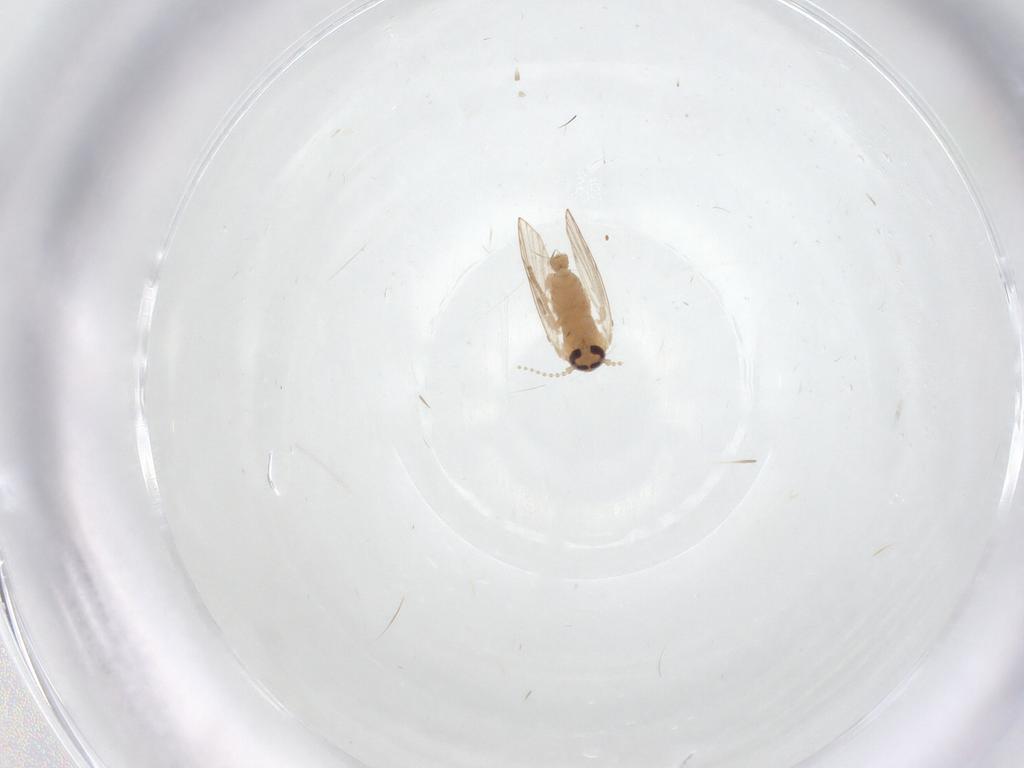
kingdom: Animalia
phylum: Arthropoda
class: Insecta
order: Diptera
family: Psychodidae
